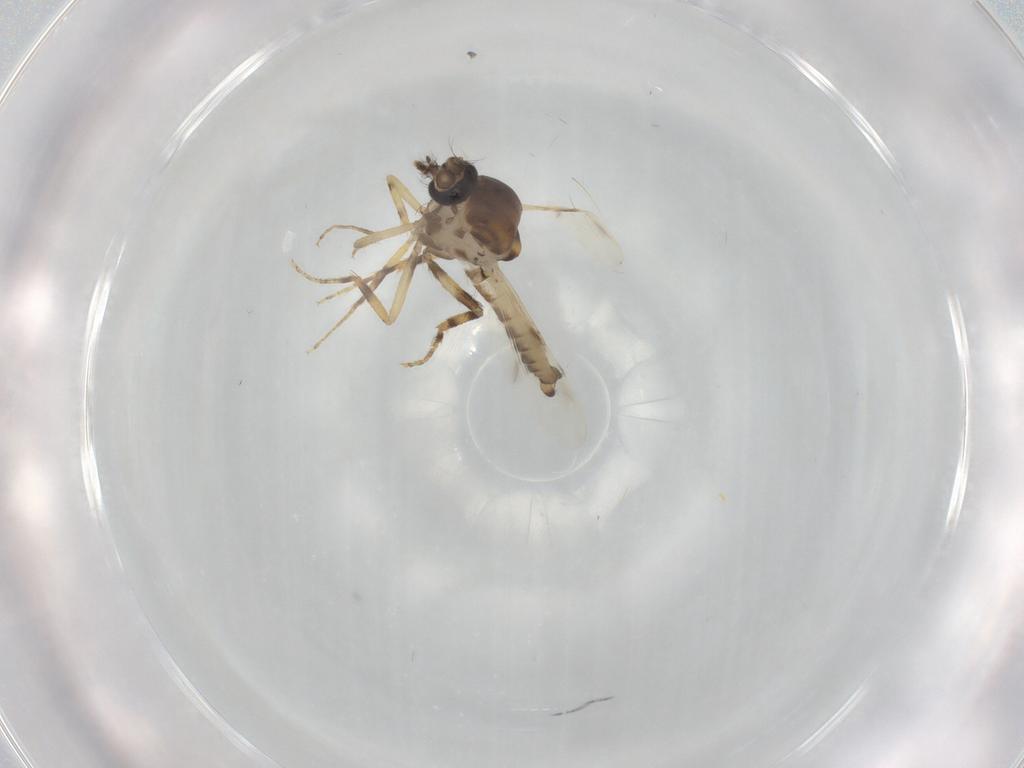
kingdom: Animalia
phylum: Arthropoda
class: Insecta
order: Diptera
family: Ceratopogonidae
